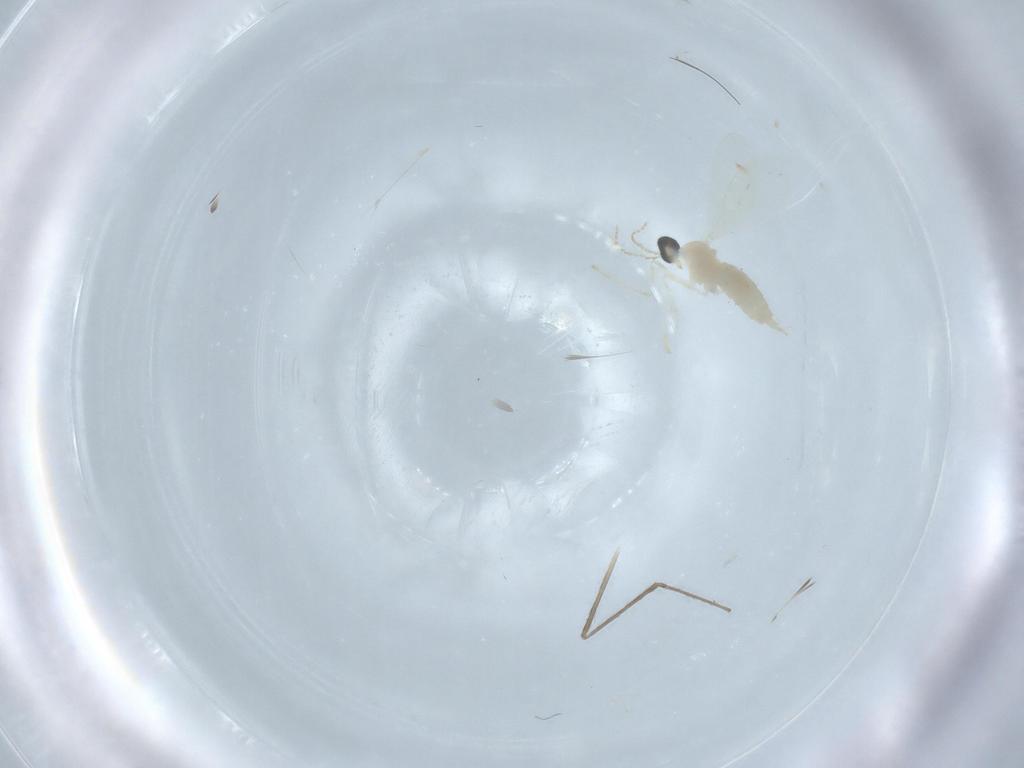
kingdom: Animalia
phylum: Arthropoda
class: Insecta
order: Diptera
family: Cecidomyiidae
